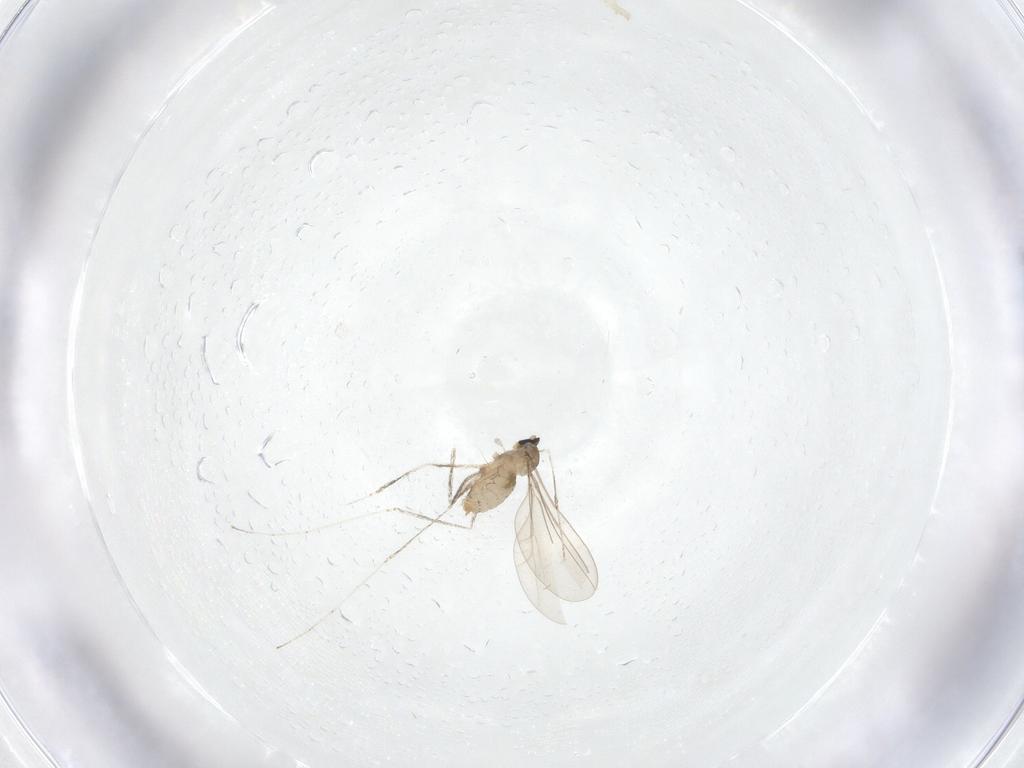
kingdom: Animalia
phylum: Arthropoda
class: Insecta
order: Diptera
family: Cecidomyiidae
